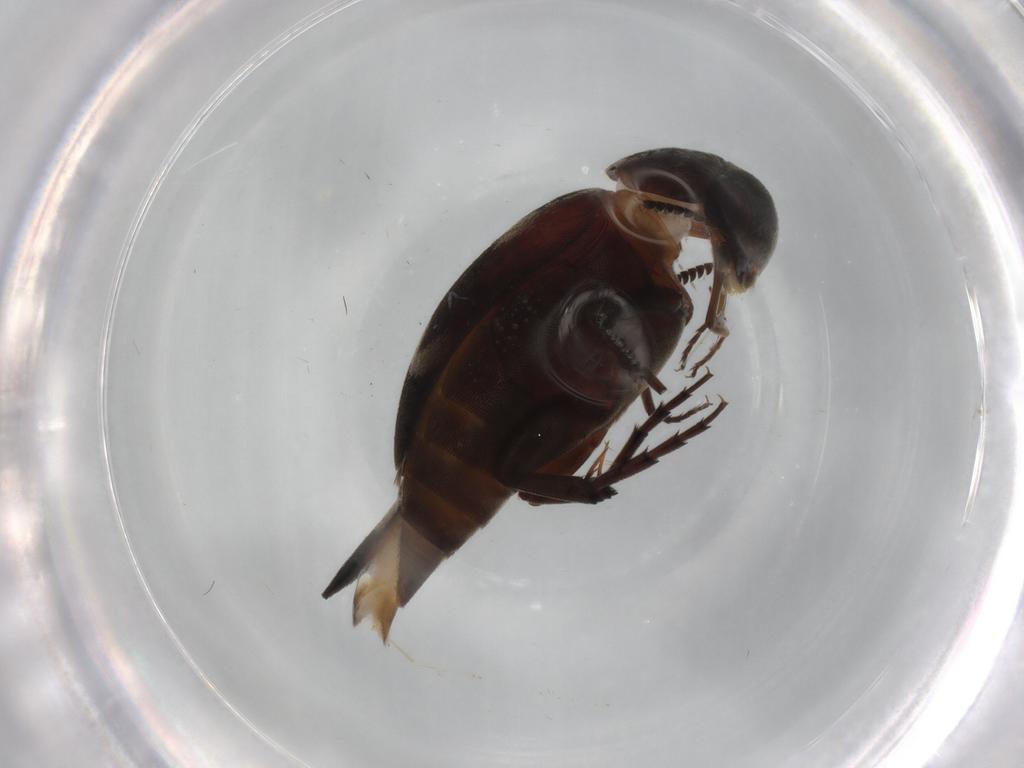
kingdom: Animalia
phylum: Arthropoda
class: Insecta
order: Coleoptera
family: Mordellidae
